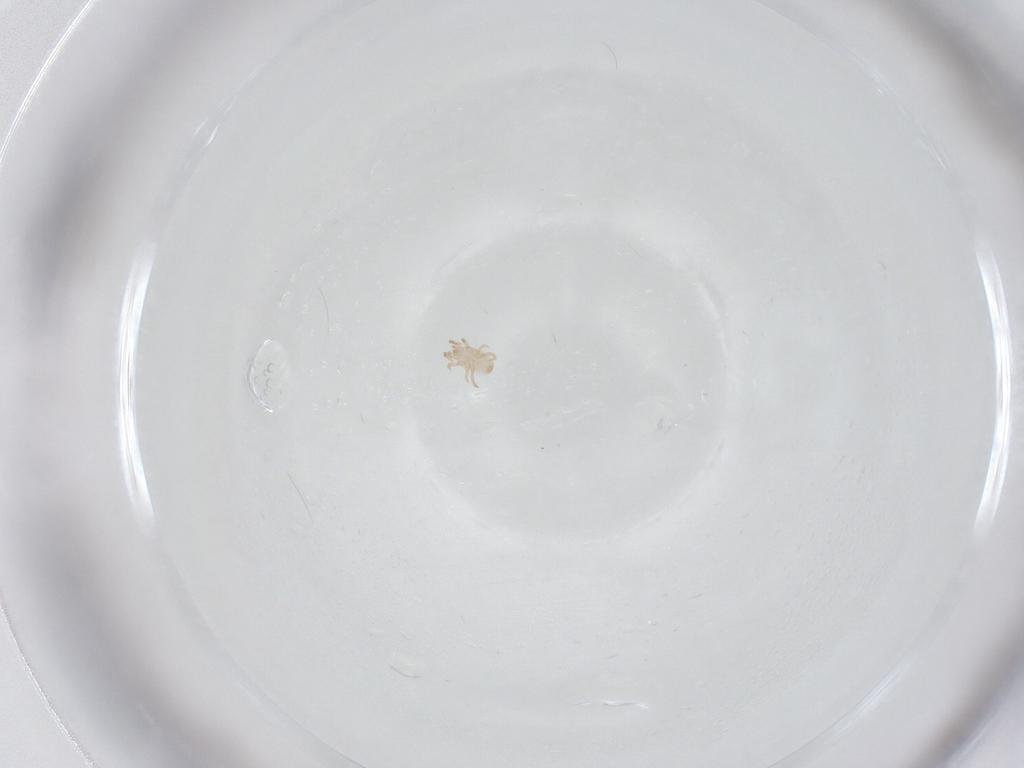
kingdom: Animalia
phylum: Arthropoda
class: Arachnida
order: Mesostigmata
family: Ascidae
